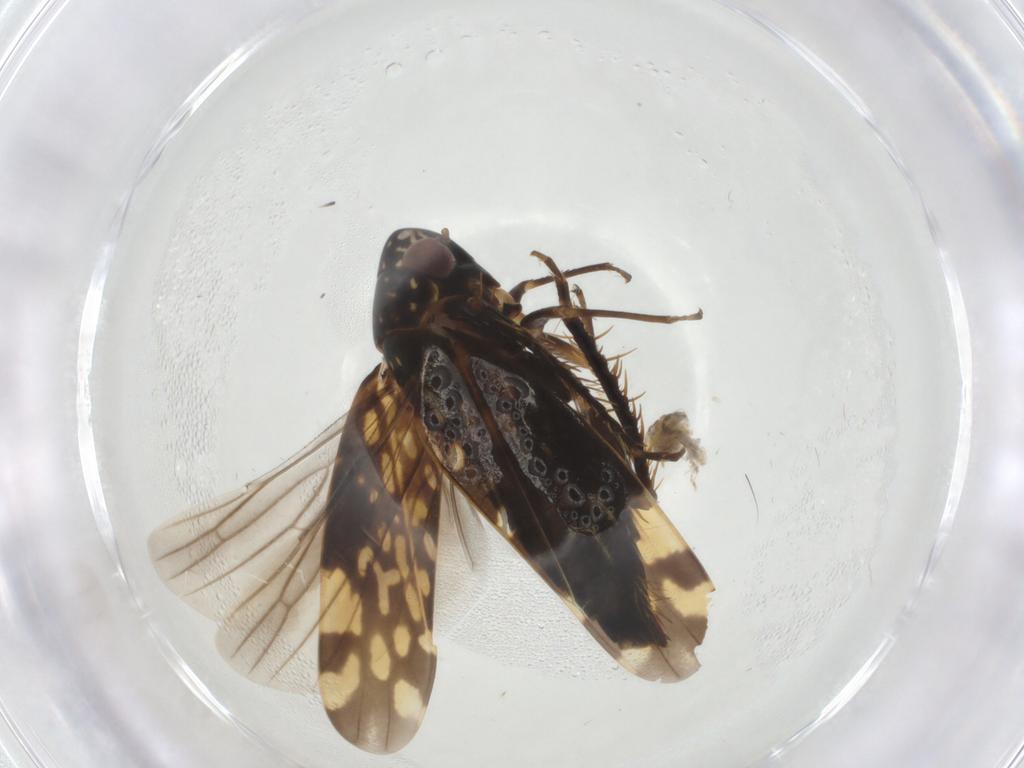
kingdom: Animalia
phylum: Arthropoda
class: Insecta
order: Hemiptera
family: Cicadellidae
